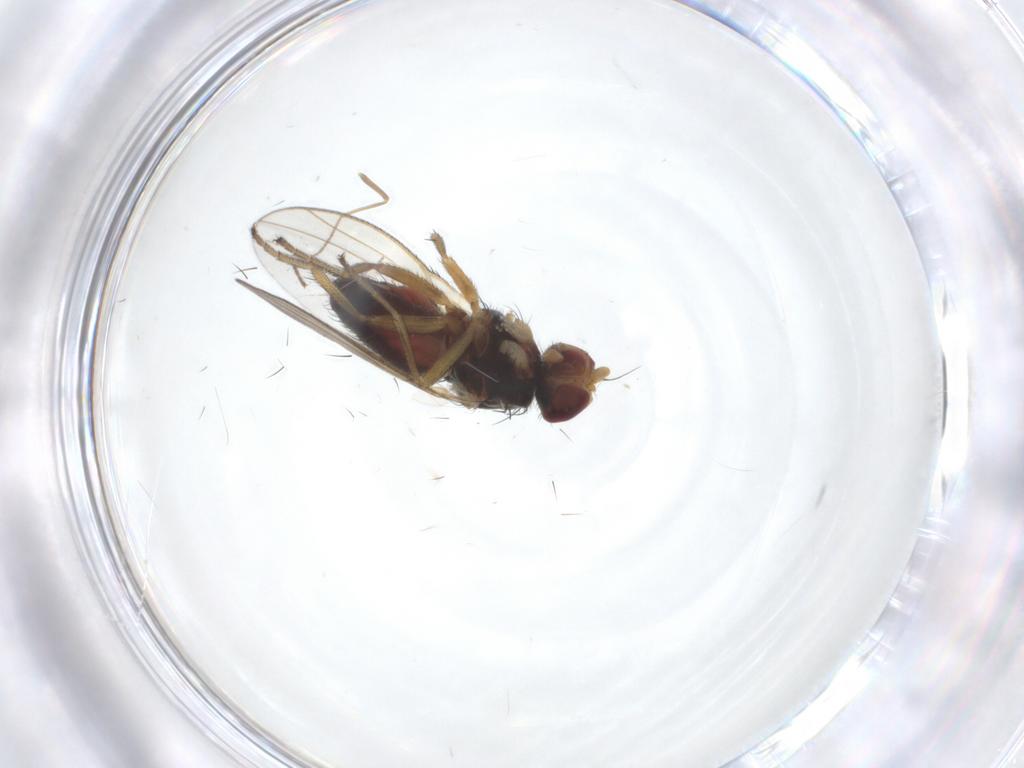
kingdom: Animalia
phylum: Arthropoda
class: Insecta
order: Diptera
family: Heleomyzidae
